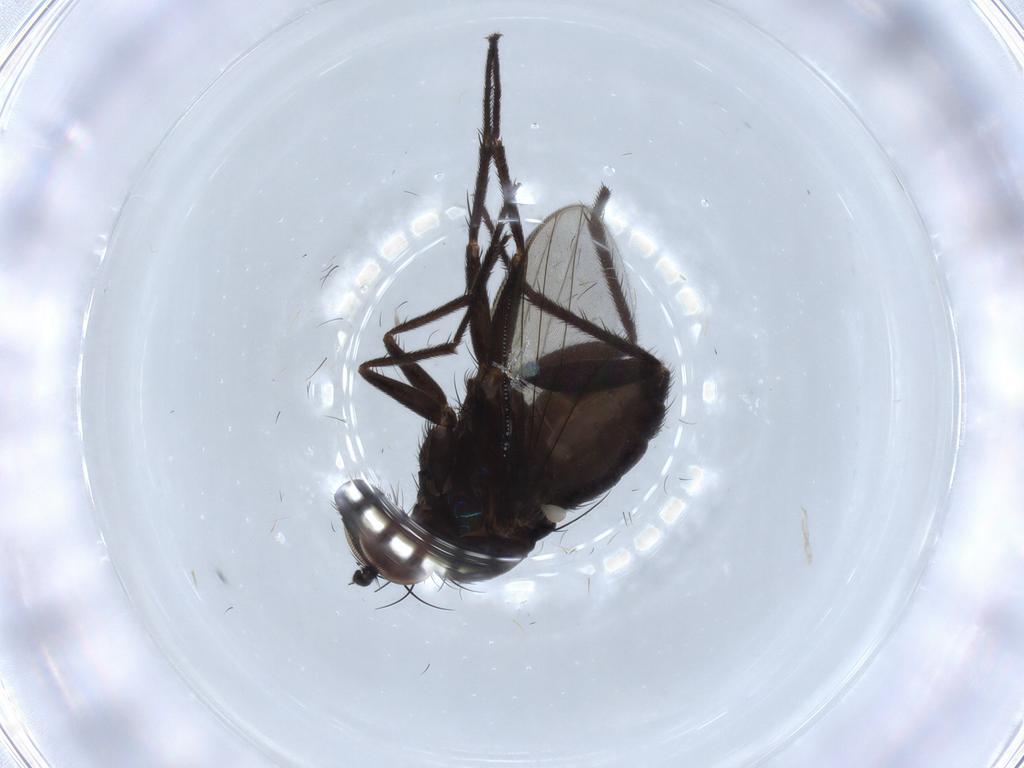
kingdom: Animalia
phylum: Arthropoda
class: Insecta
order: Diptera
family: Dolichopodidae
